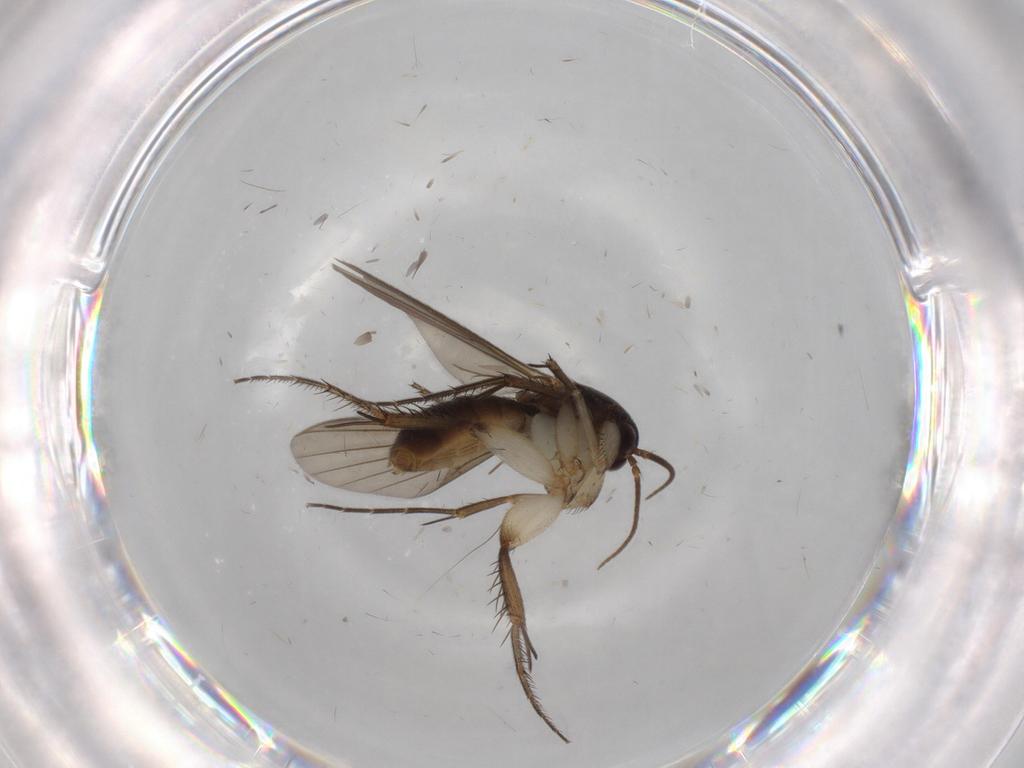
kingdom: Animalia
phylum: Arthropoda
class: Insecta
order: Diptera
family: Mycetophilidae
